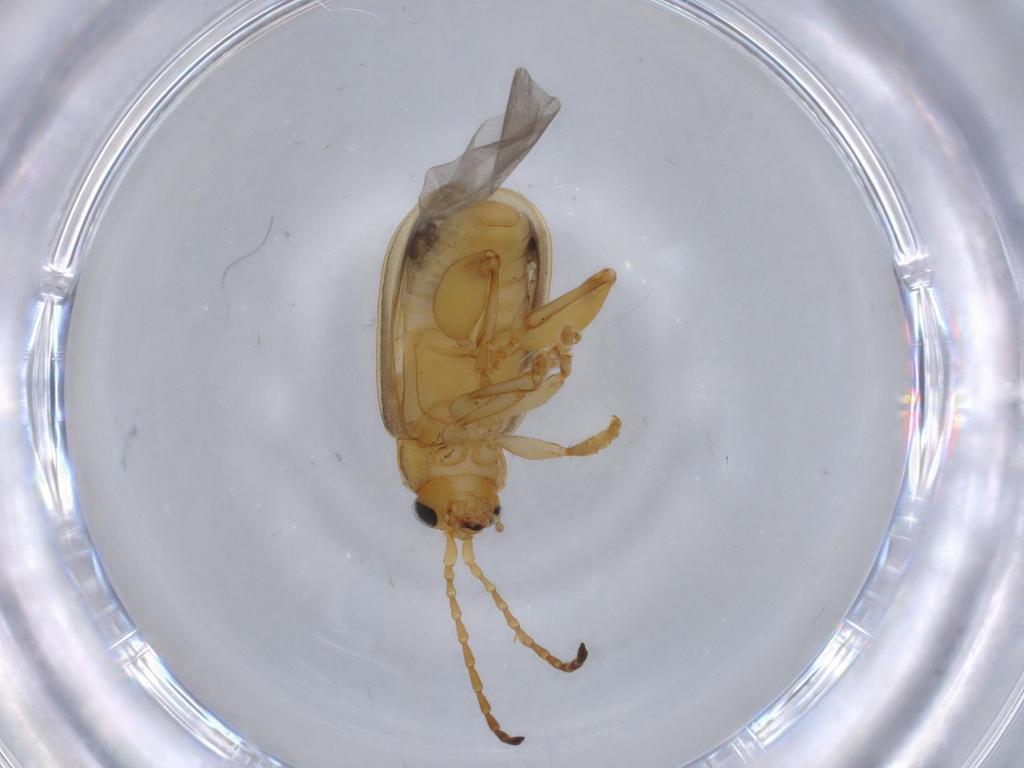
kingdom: Animalia
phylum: Arthropoda
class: Insecta
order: Coleoptera
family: Chrysomelidae
